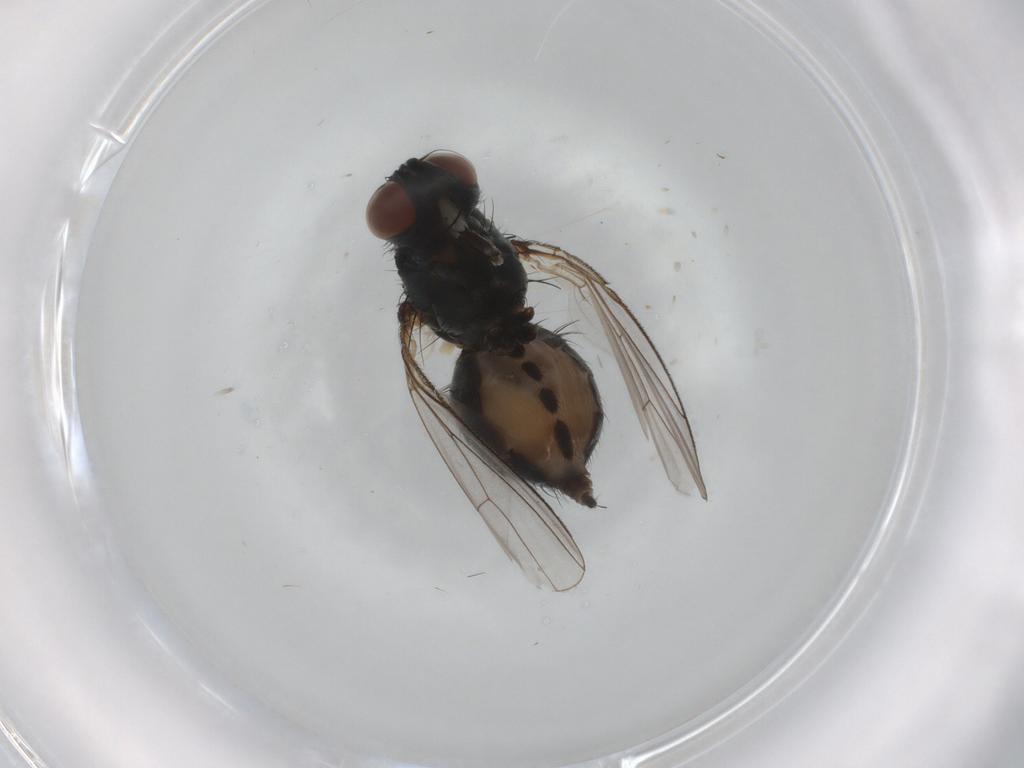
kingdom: Animalia
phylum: Arthropoda
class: Insecta
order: Diptera
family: Muscidae
